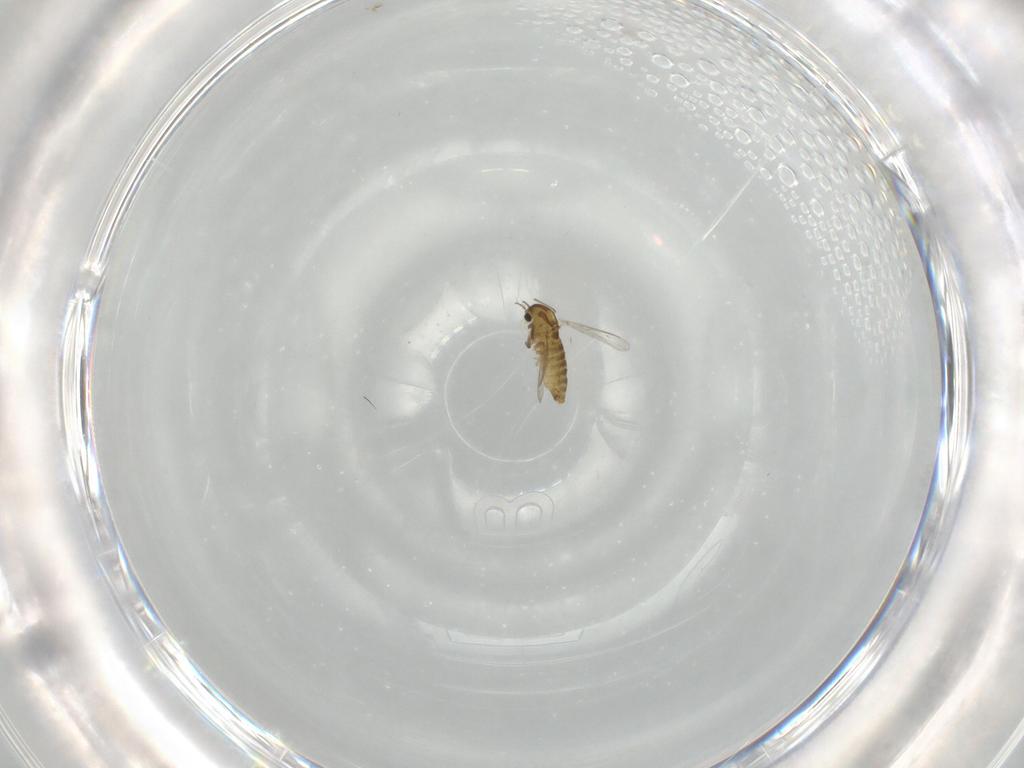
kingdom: Animalia
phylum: Arthropoda
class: Insecta
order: Diptera
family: Chironomidae
